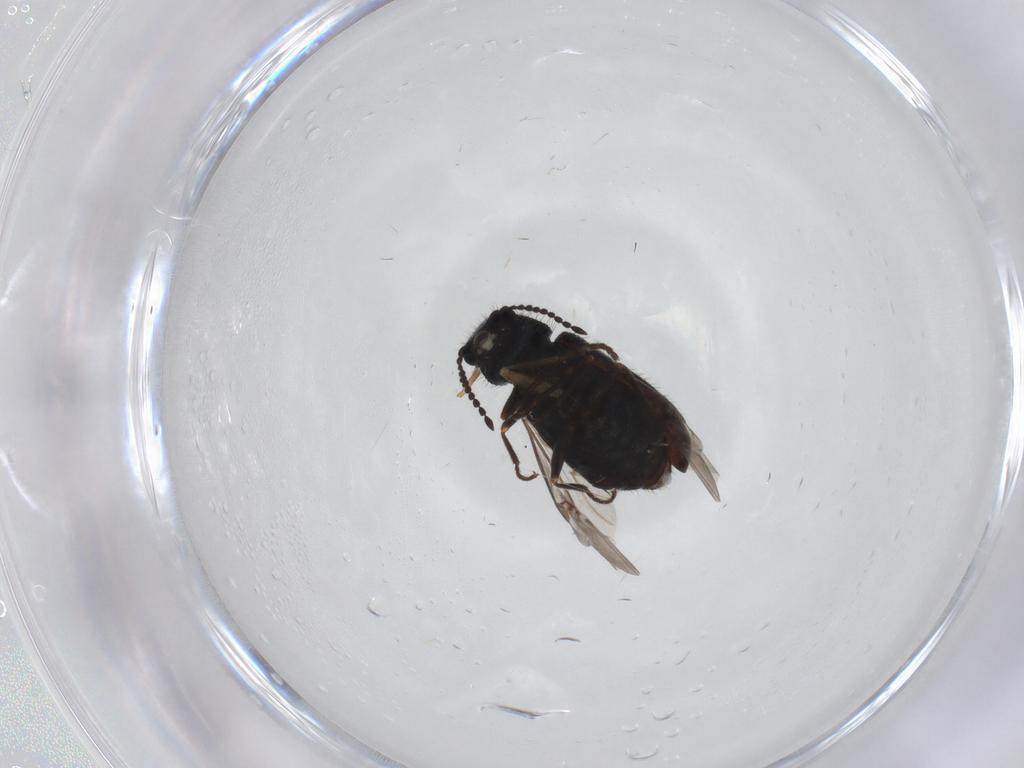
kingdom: Animalia
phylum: Arthropoda
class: Insecta
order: Coleoptera
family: Melyridae
